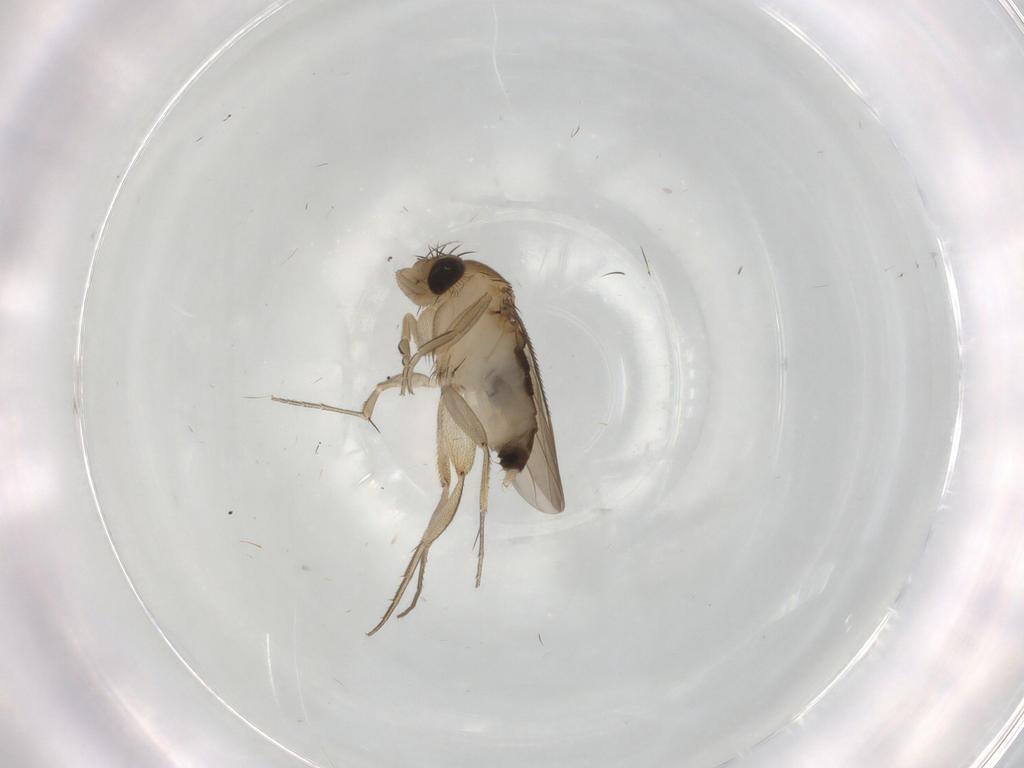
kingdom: Animalia
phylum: Arthropoda
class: Insecta
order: Diptera
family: Phoridae
